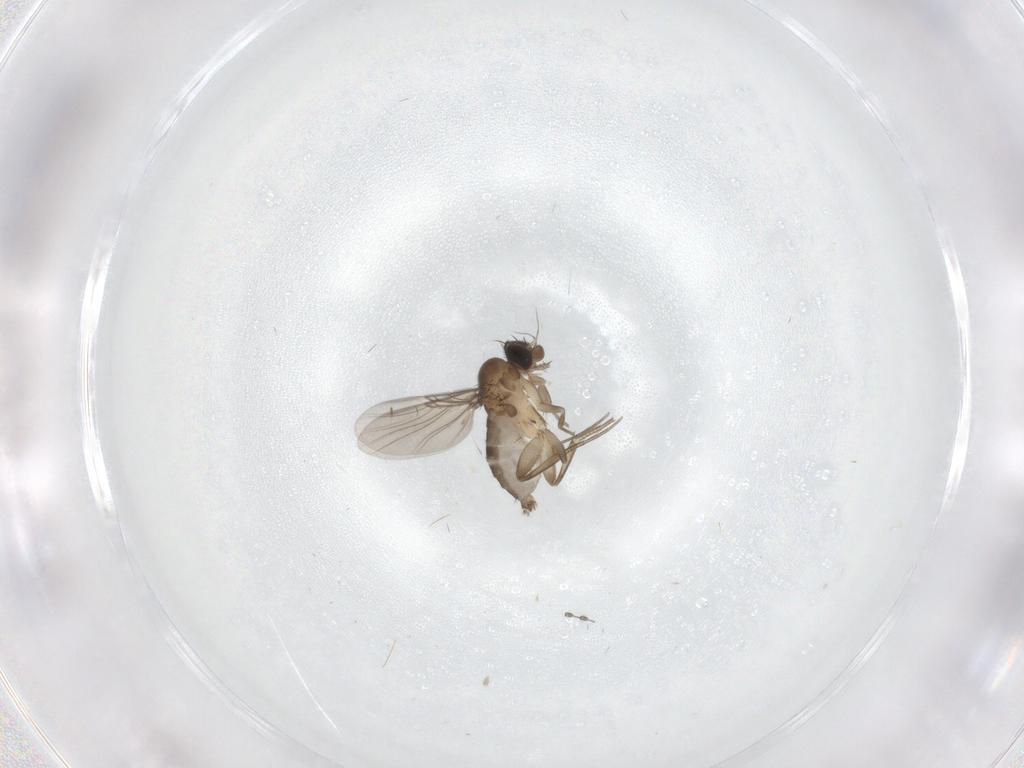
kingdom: Animalia
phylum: Arthropoda
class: Insecta
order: Diptera
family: Phoridae
